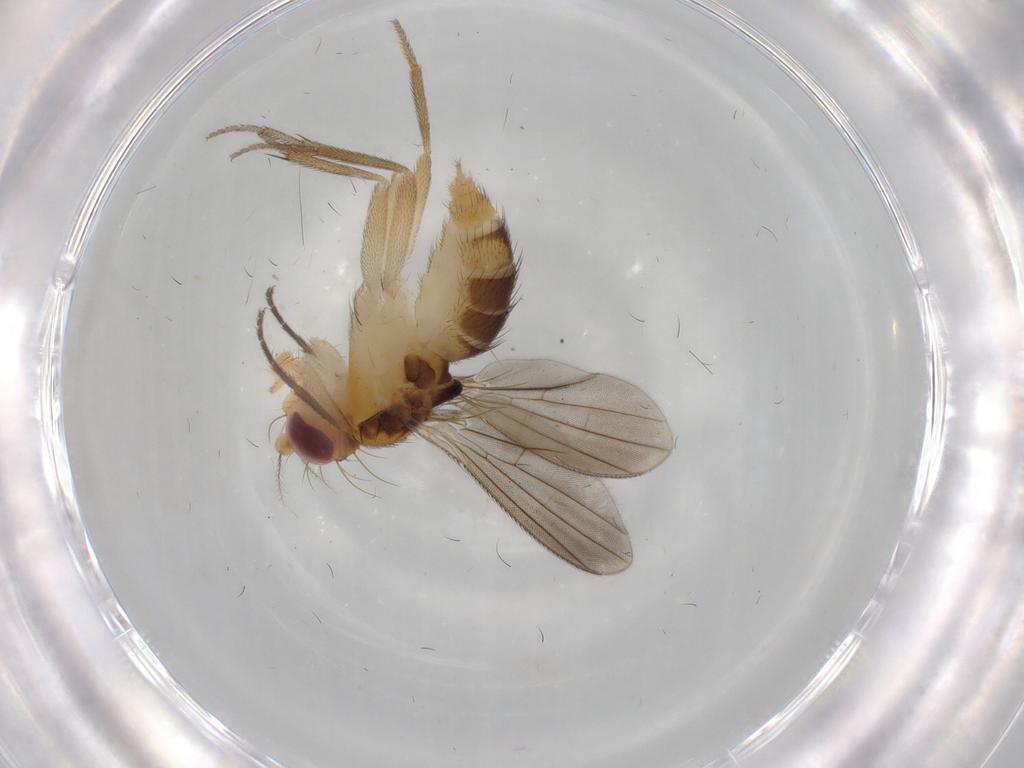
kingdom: Animalia
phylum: Arthropoda
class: Insecta
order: Diptera
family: Clusiidae
